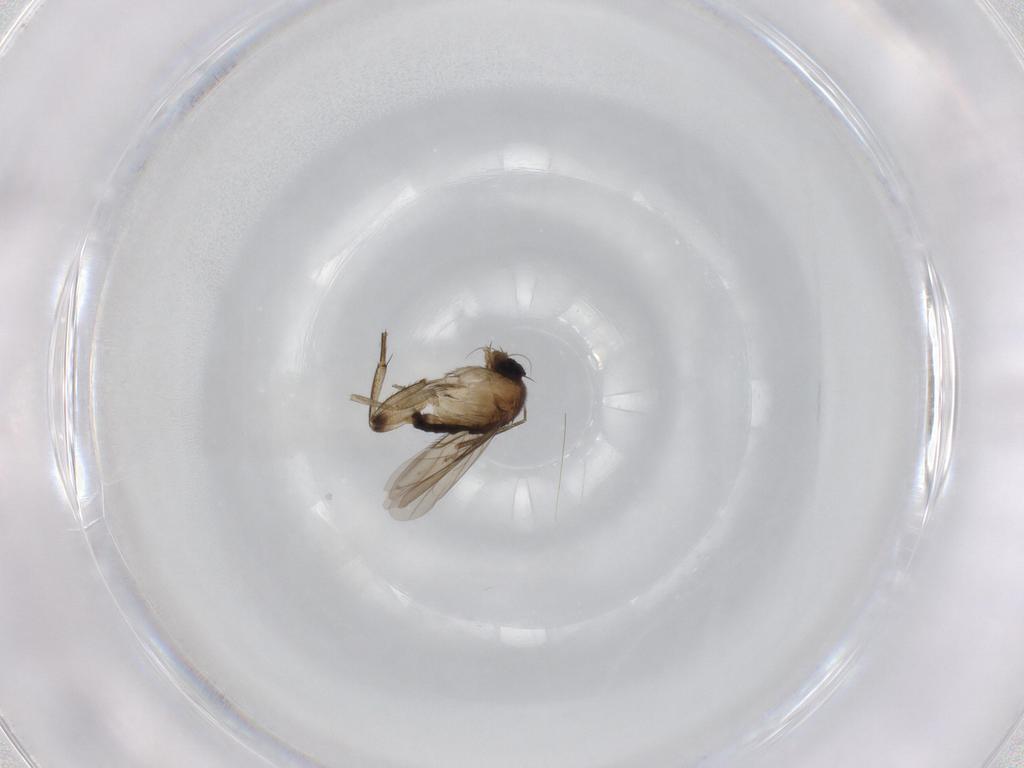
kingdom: Animalia
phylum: Arthropoda
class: Insecta
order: Diptera
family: Phoridae
